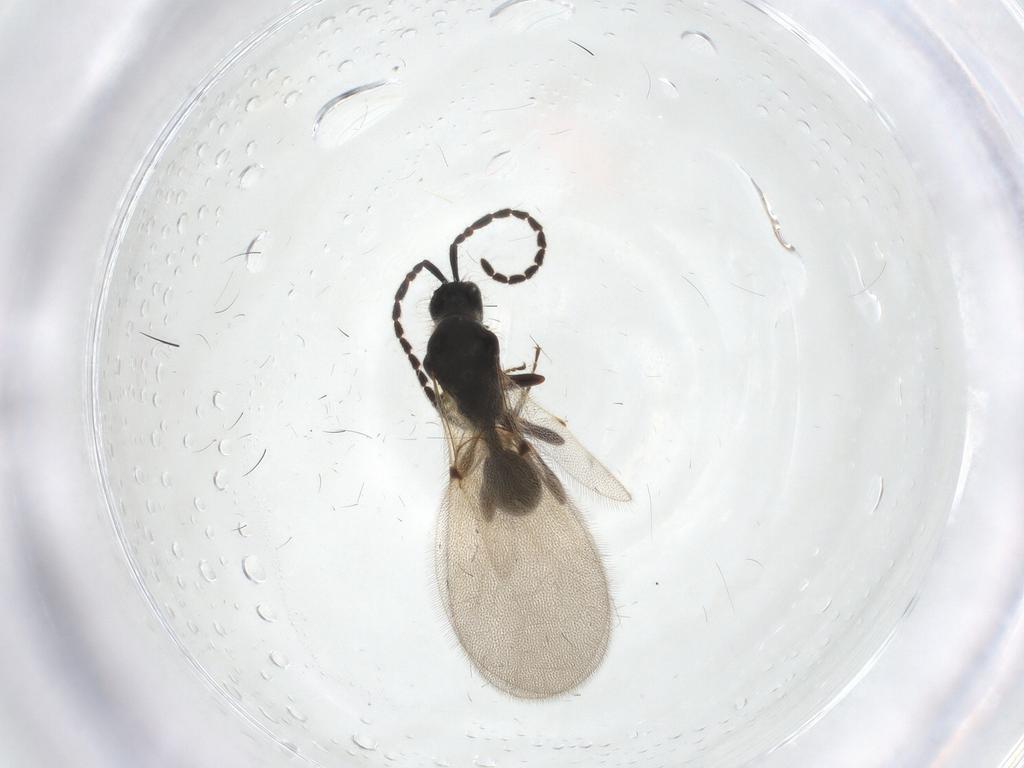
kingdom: Animalia
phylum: Arthropoda
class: Insecta
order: Hymenoptera
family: Diapriidae
